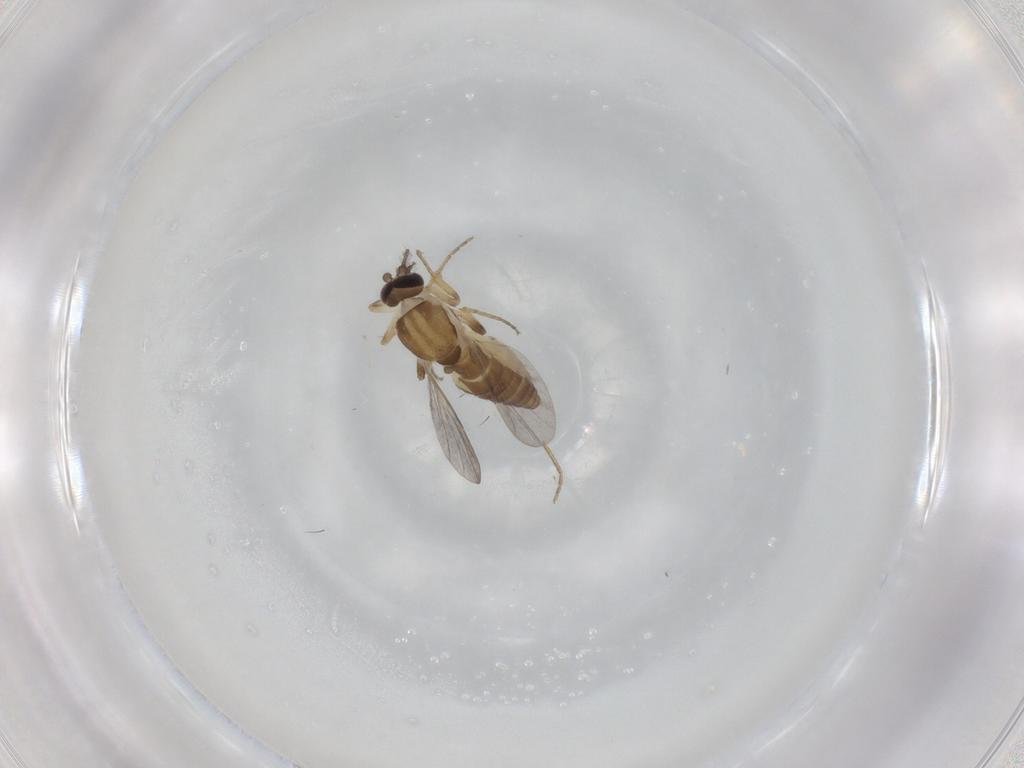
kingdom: Animalia
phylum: Arthropoda
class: Insecta
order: Diptera
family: Ceratopogonidae
